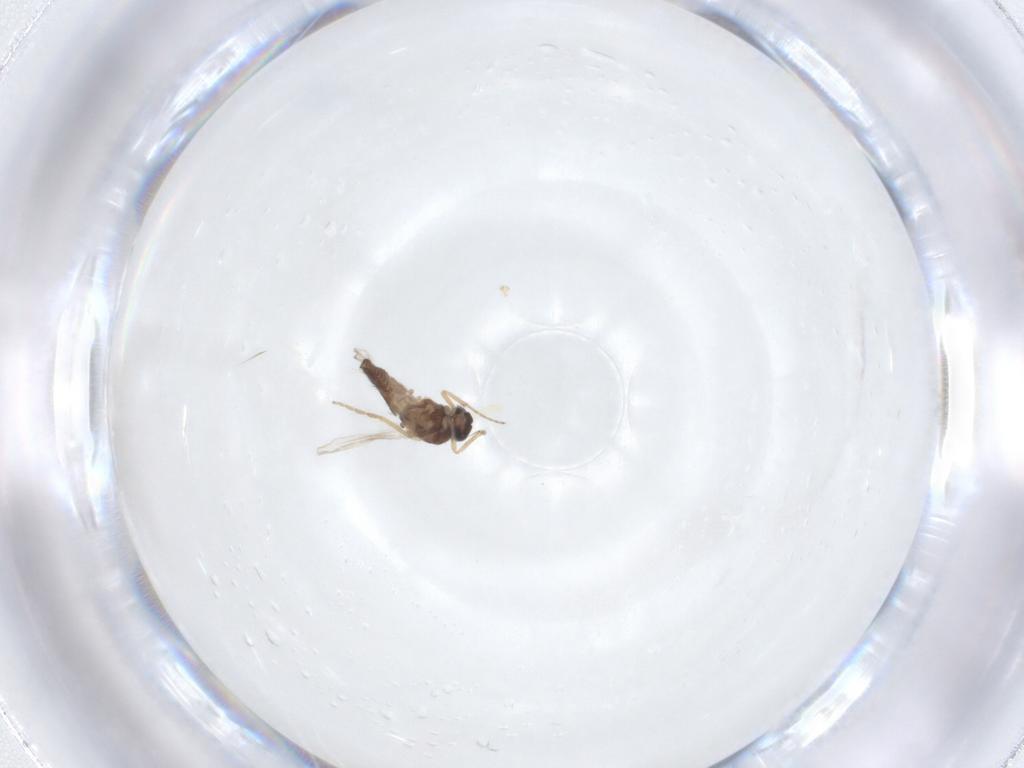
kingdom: Animalia
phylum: Arthropoda
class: Insecta
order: Diptera
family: Ceratopogonidae
